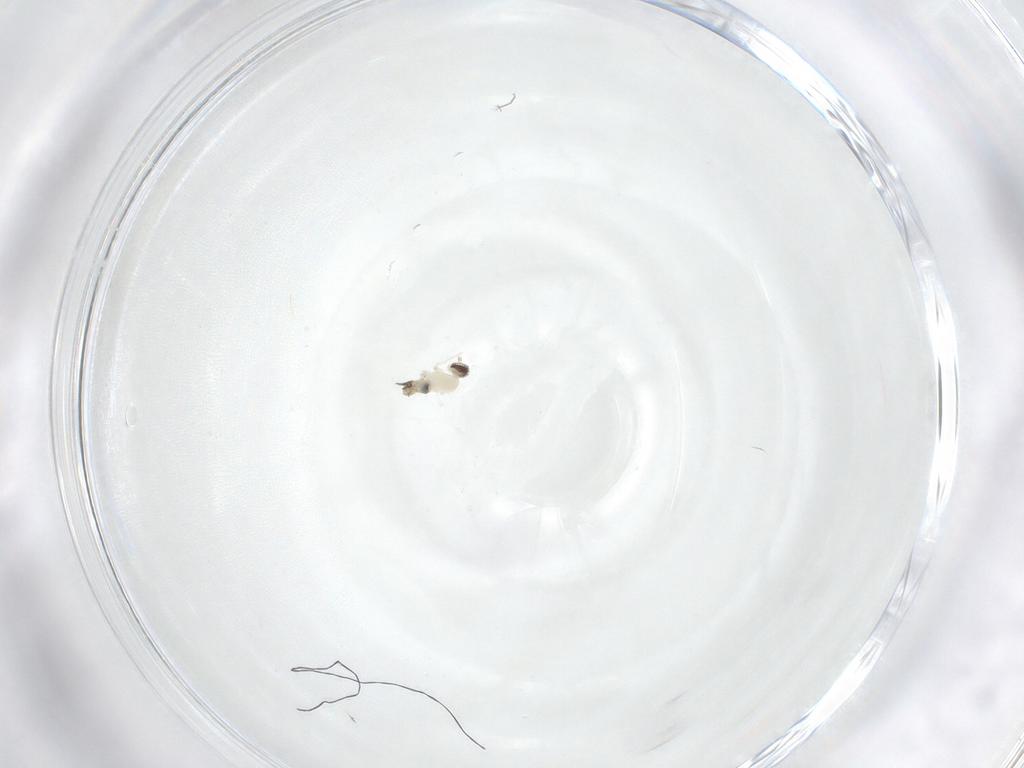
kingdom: Animalia
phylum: Arthropoda
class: Insecta
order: Diptera
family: Cecidomyiidae
